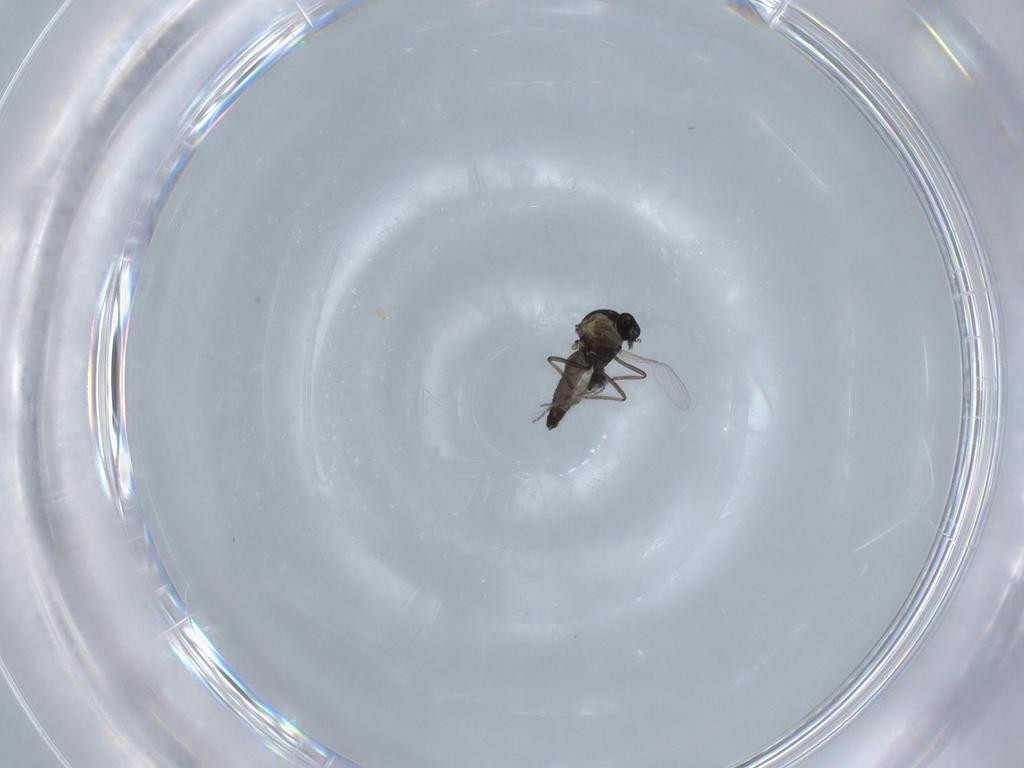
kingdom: Animalia
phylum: Arthropoda
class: Insecta
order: Diptera
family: Ceratopogonidae
